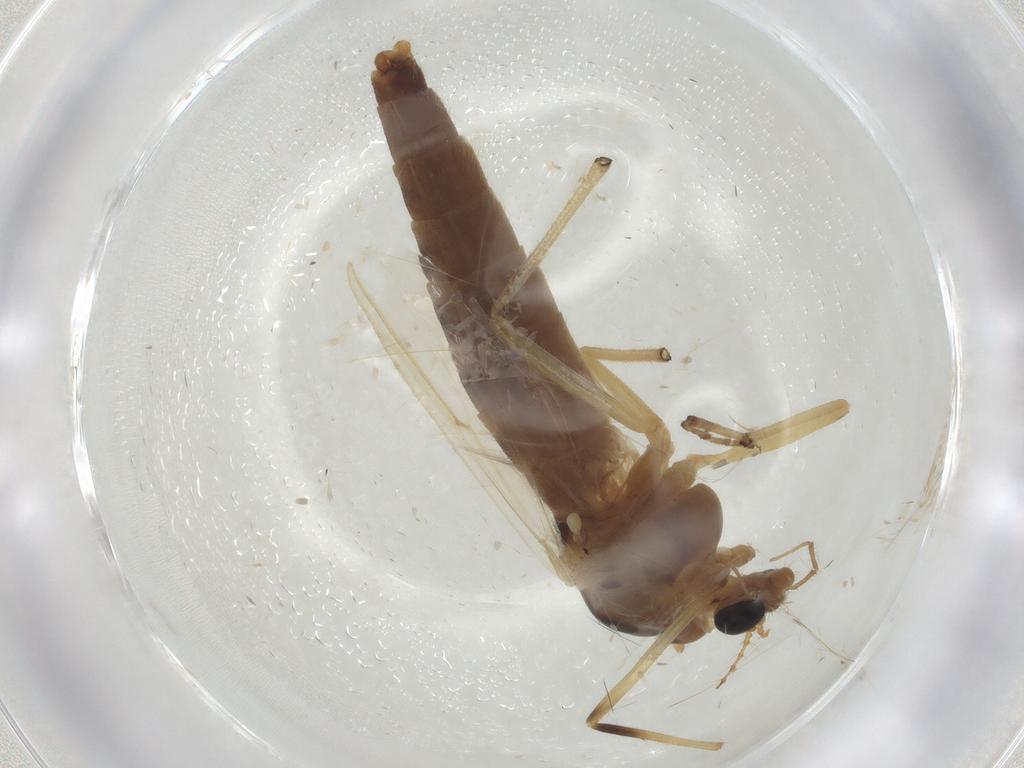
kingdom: Animalia
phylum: Arthropoda
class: Insecta
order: Diptera
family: Chironomidae
